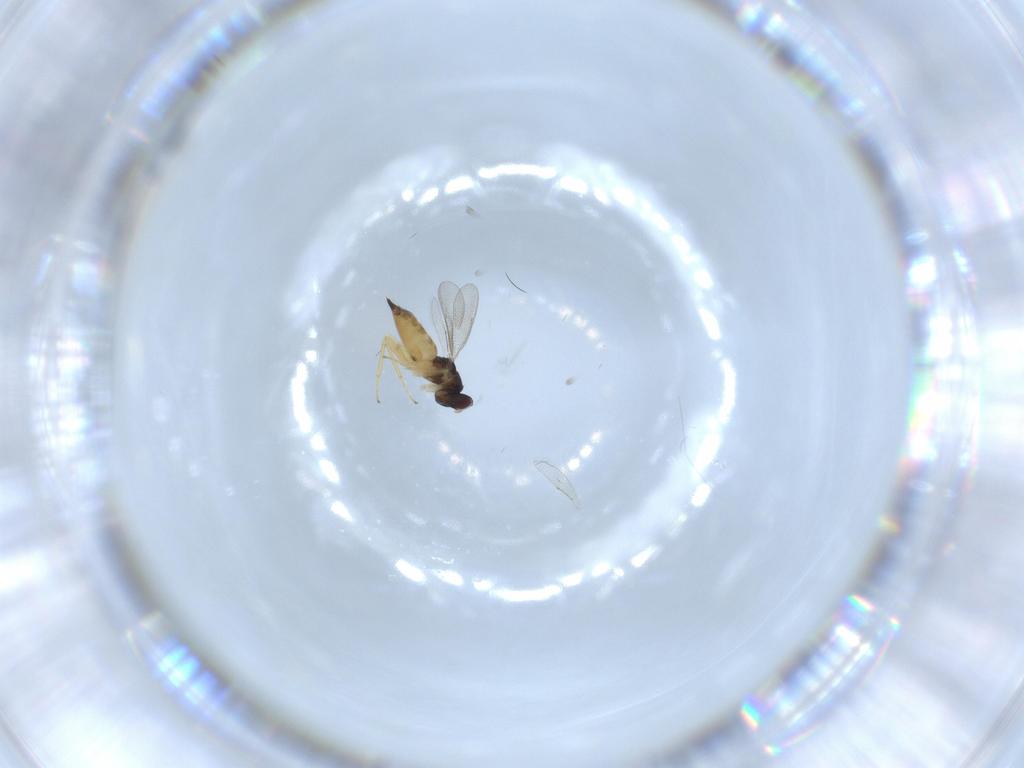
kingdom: Animalia
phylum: Arthropoda
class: Insecta
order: Hymenoptera
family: Eulophidae
